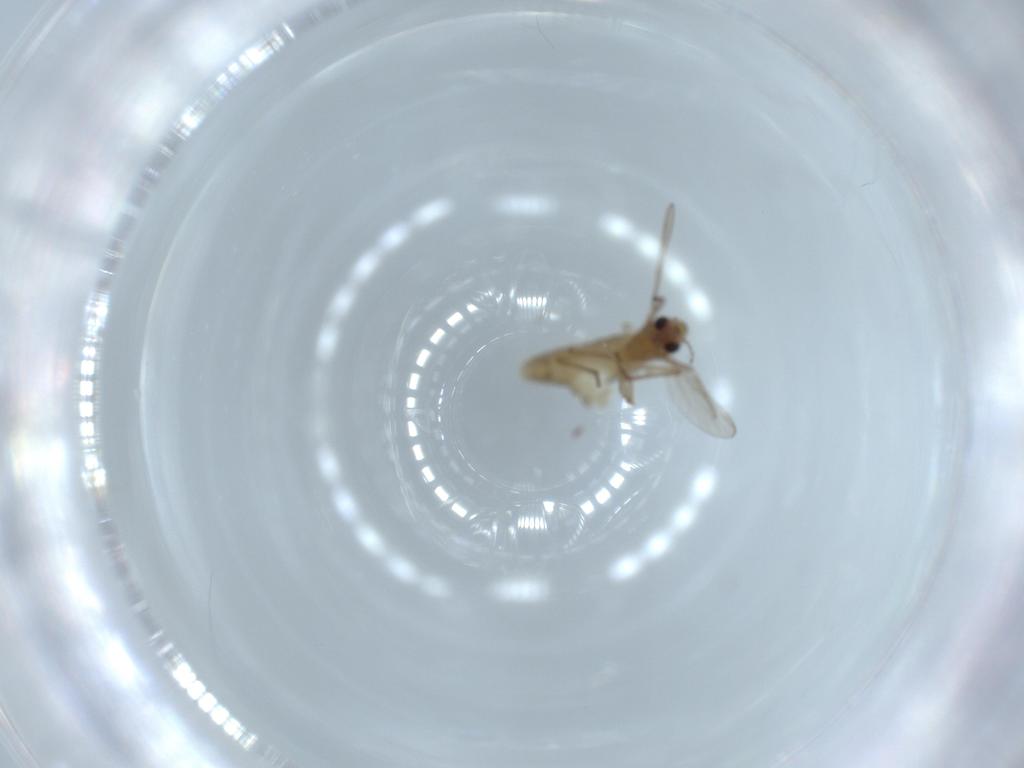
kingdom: Animalia
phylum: Arthropoda
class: Insecta
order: Diptera
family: Chironomidae
